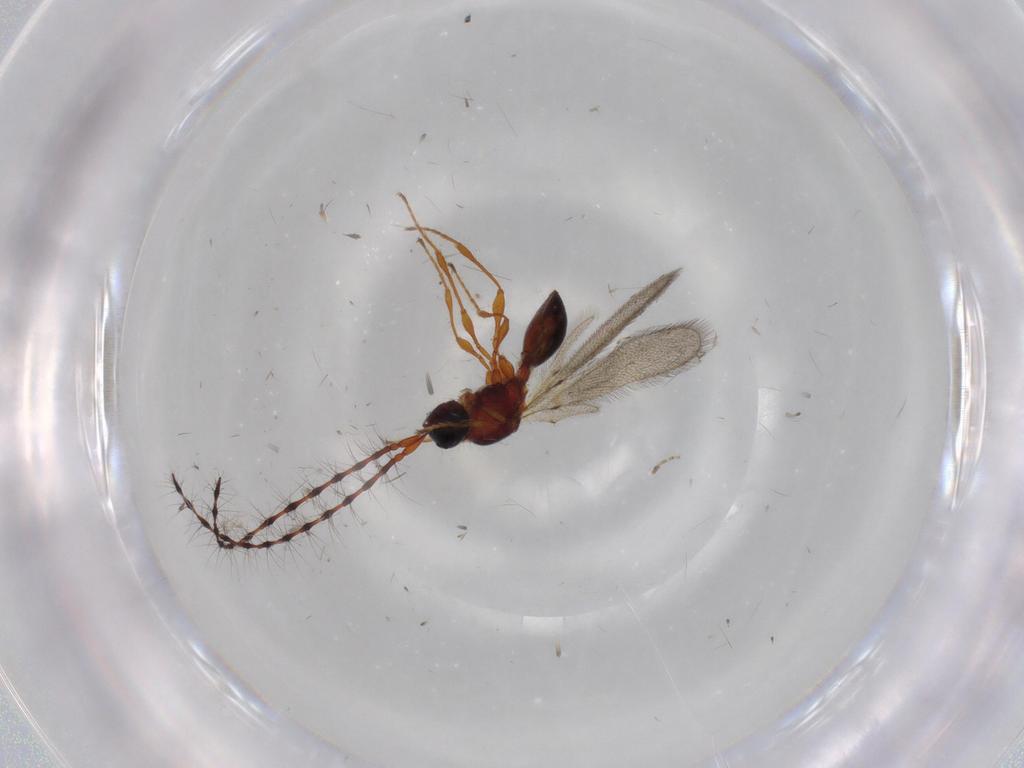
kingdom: Animalia
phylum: Arthropoda
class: Insecta
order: Hymenoptera
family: Diapriidae
